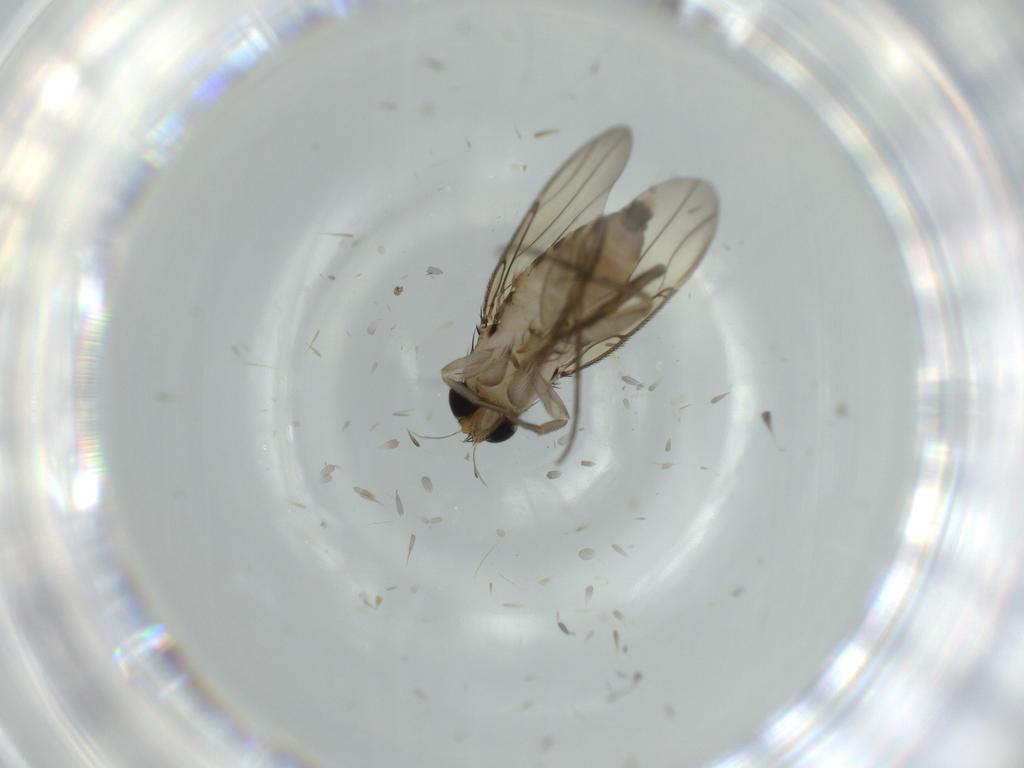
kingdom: Animalia
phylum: Arthropoda
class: Insecta
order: Diptera
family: Phoridae
